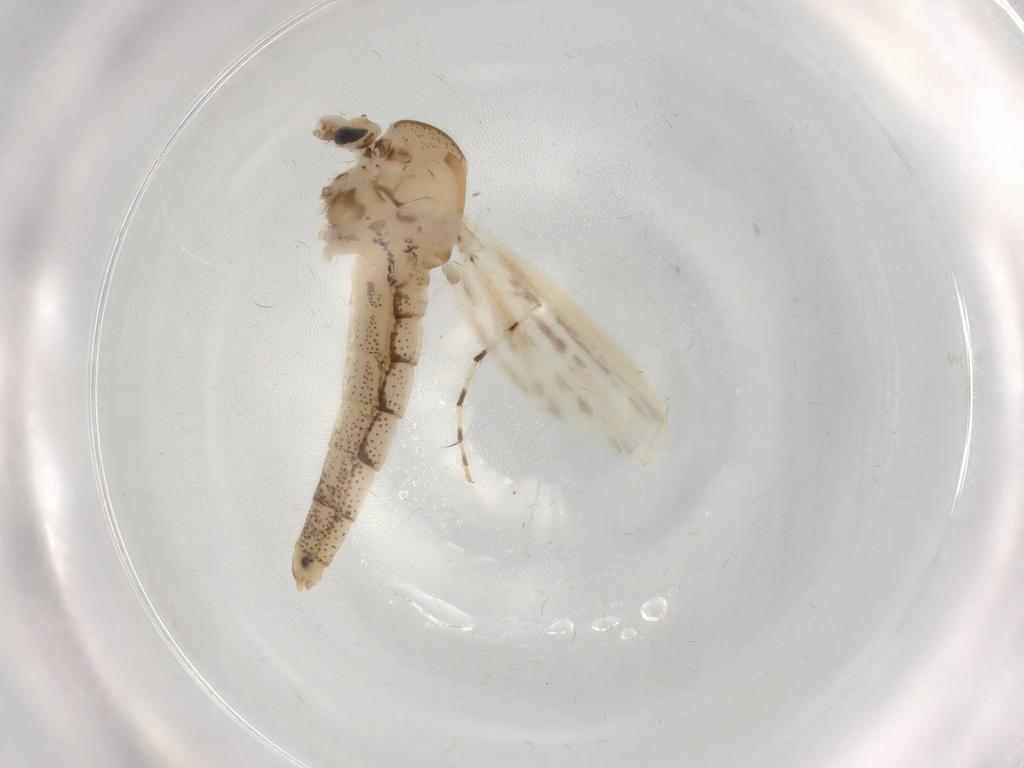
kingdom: Animalia
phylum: Arthropoda
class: Insecta
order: Diptera
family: Chaoboridae
